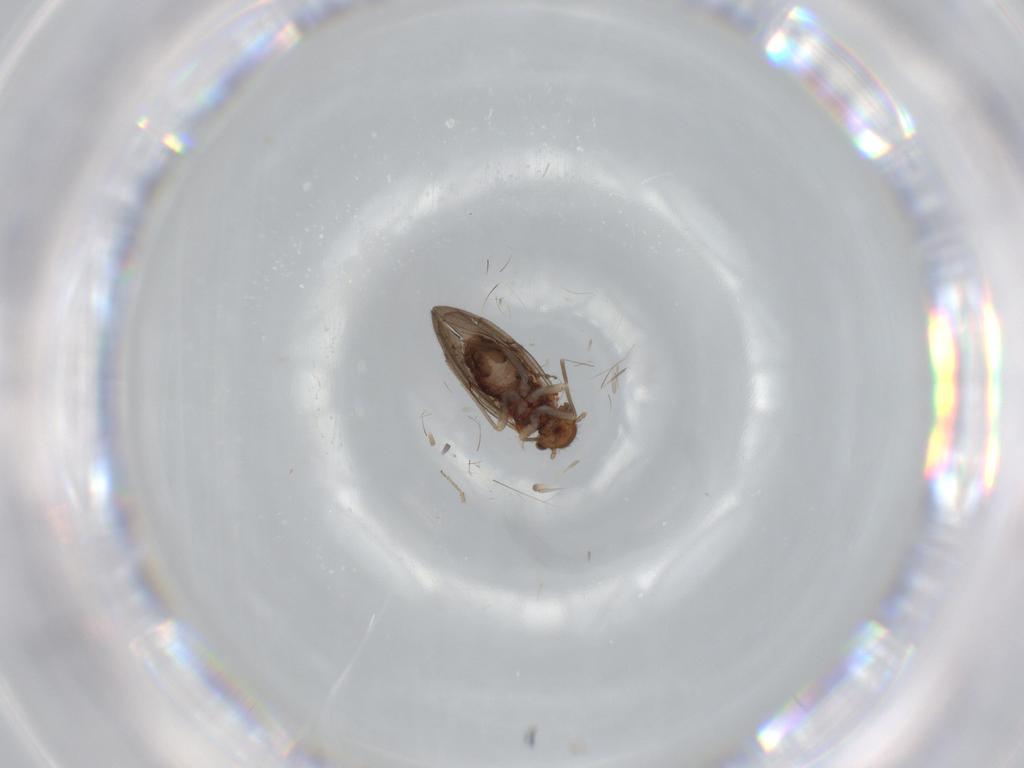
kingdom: Animalia
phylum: Arthropoda
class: Insecta
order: Psocodea
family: Ectopsocidae
